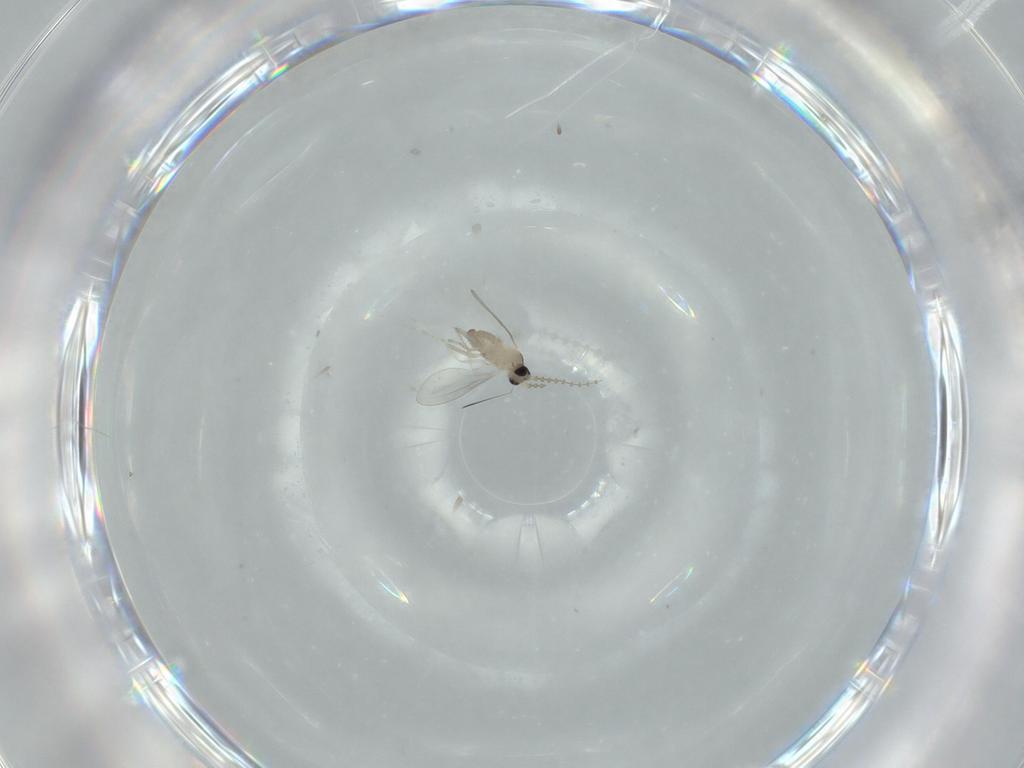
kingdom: Animalia
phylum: Arthropoda
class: Insecta
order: Diptera
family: Cecidomyiidae
